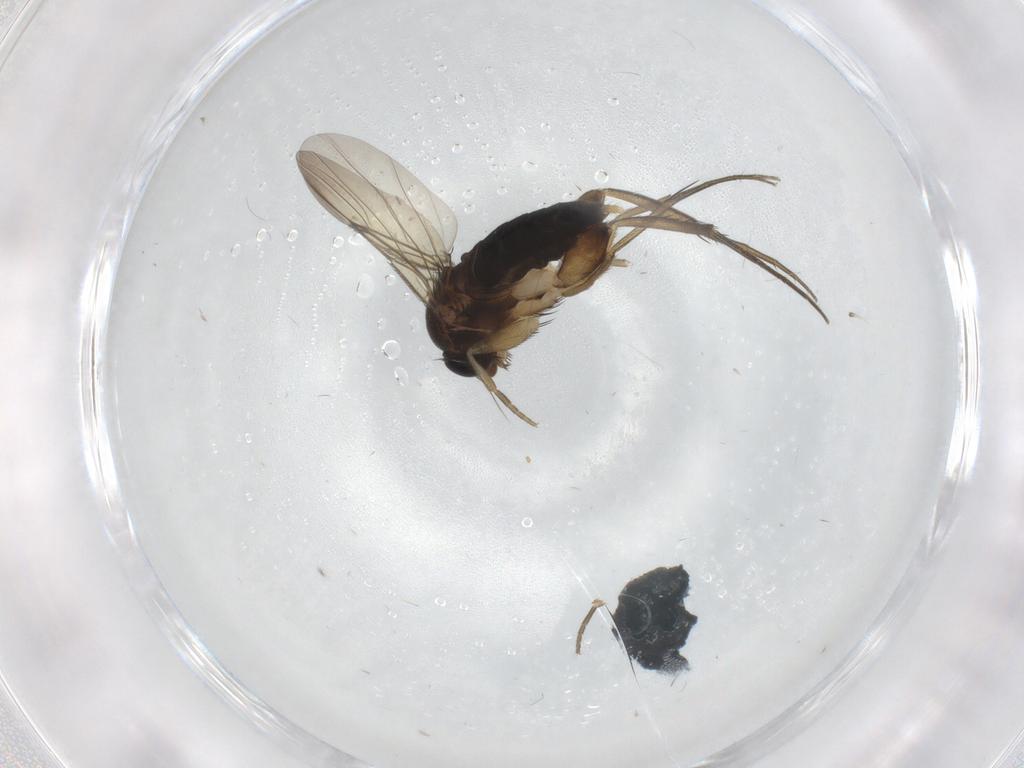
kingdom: Animalia
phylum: Arthropoda
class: Insecta
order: Diptera
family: Phoridae
